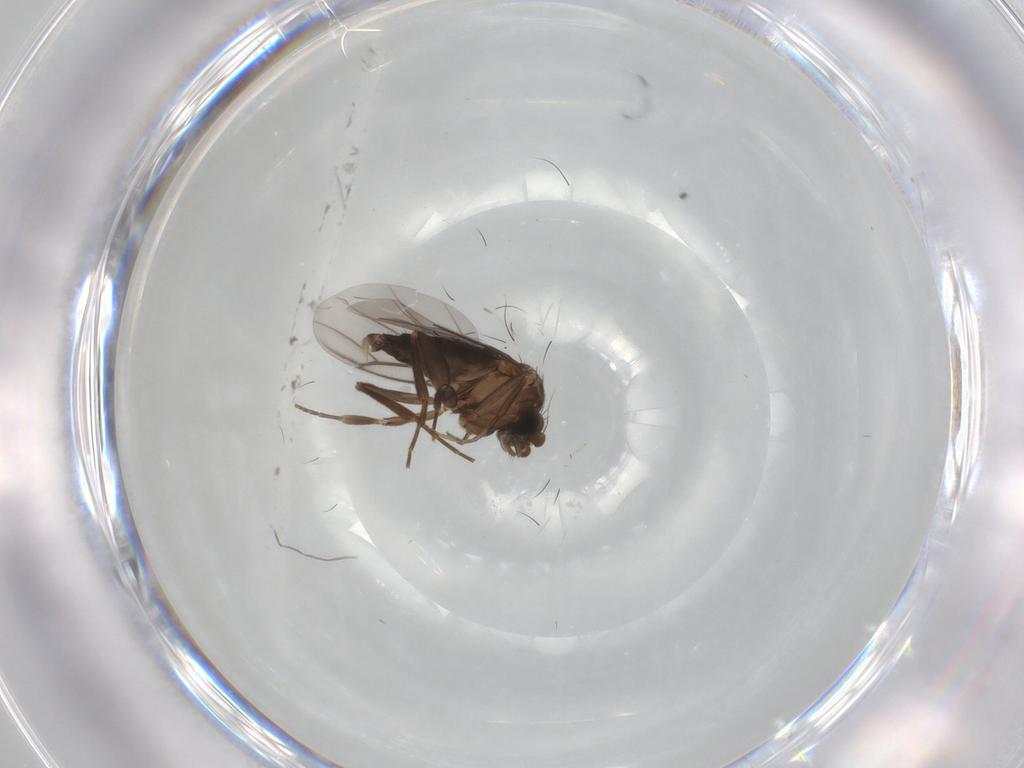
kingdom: Animalia
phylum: Arthropoda
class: Insecta
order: Diptera
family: Phoridae
